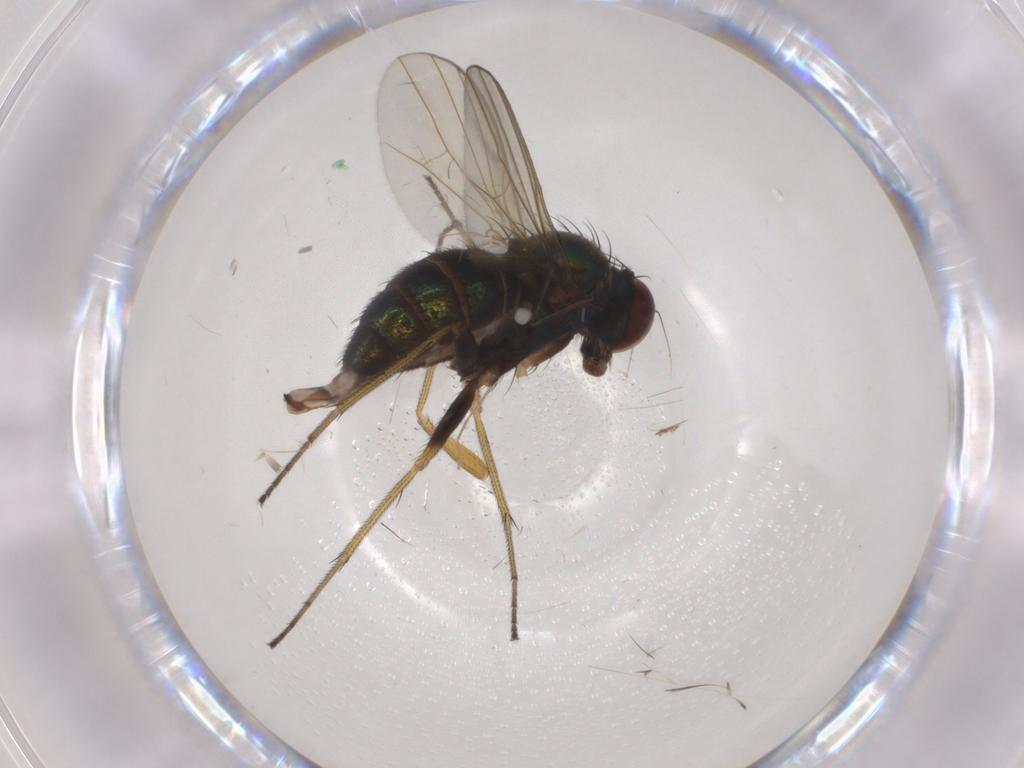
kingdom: Animalia
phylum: Arthropoda
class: Insecta
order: Diptera
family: Dolichopodidae
